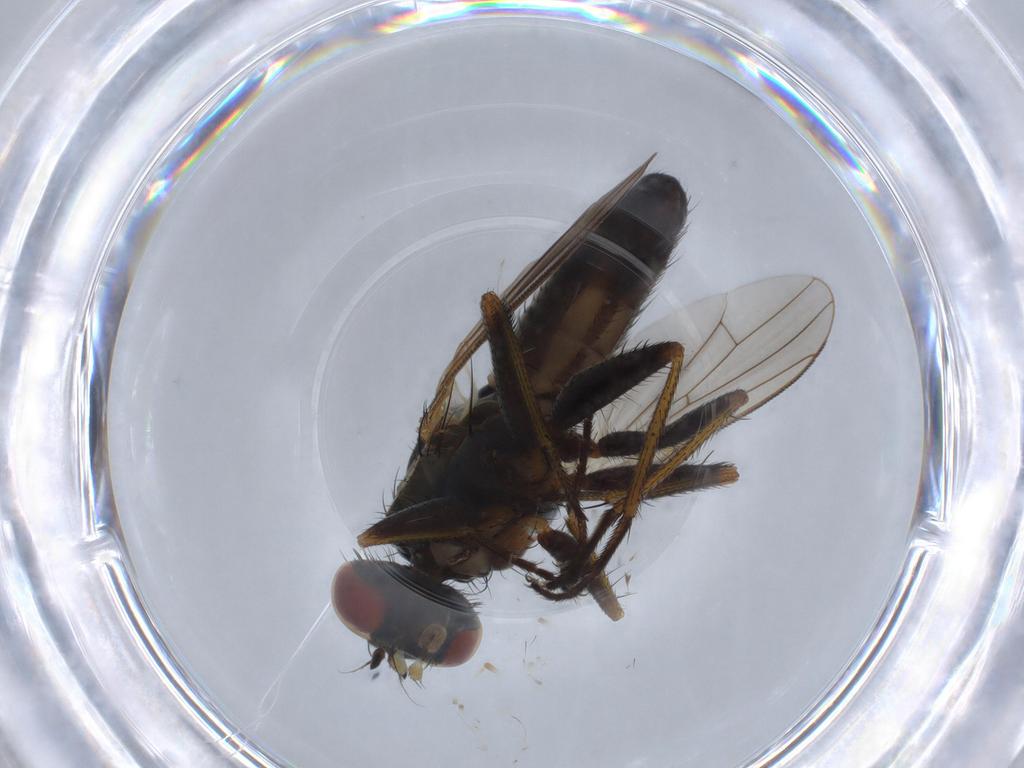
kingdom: Animalia
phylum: Arthropoda
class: Insecta
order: Diptera
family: Muscidae
